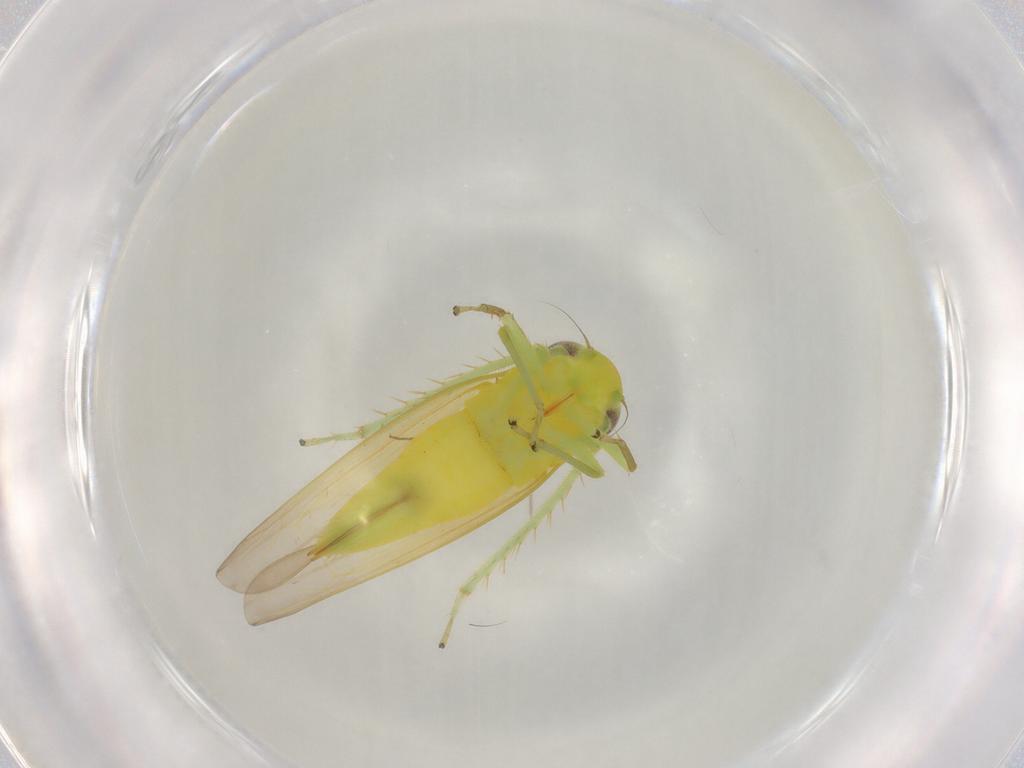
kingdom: Animalia
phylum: Arthropoda
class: Insecta
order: Hemiptera
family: Cicadellidae
